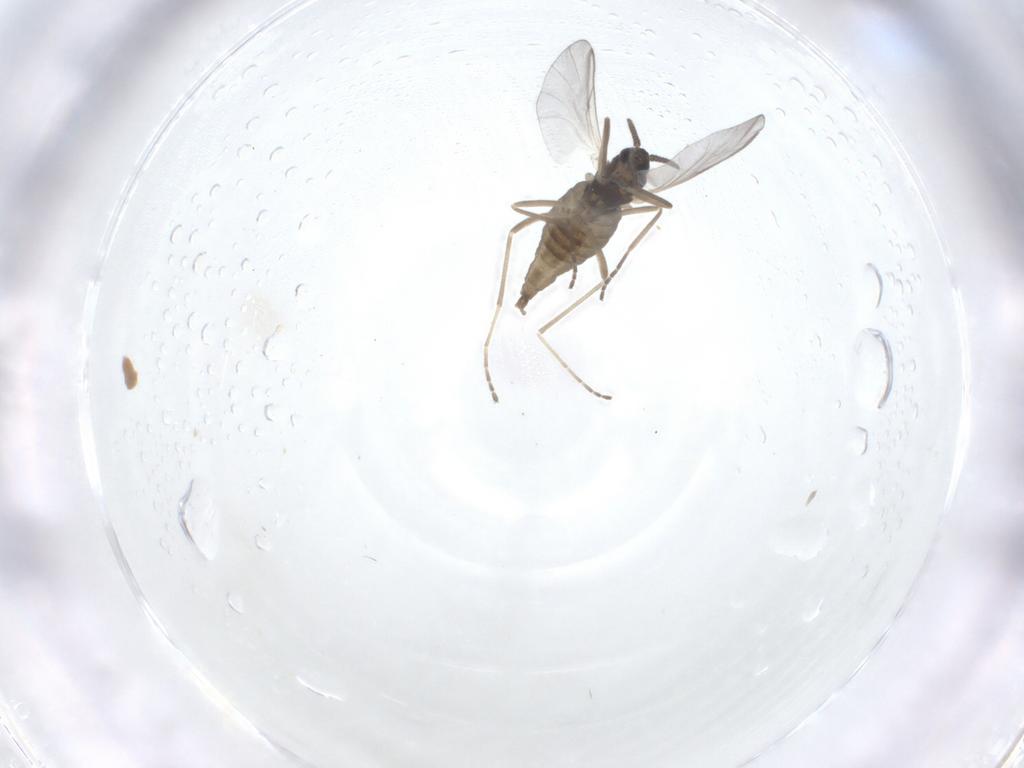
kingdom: Animalia
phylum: Arthropoda
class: Insecta
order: Diptera
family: Cecidomyiidae
